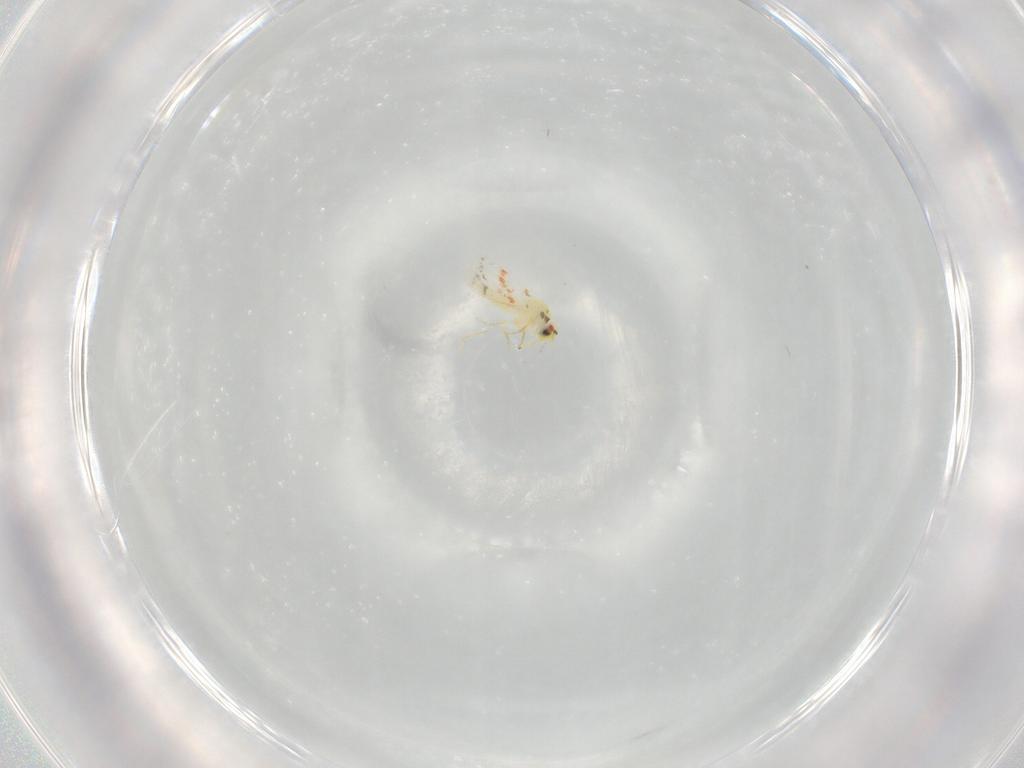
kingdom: Animalia
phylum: Arthropoda
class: Insecta
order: Hemiptera
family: Aleyrodidae
